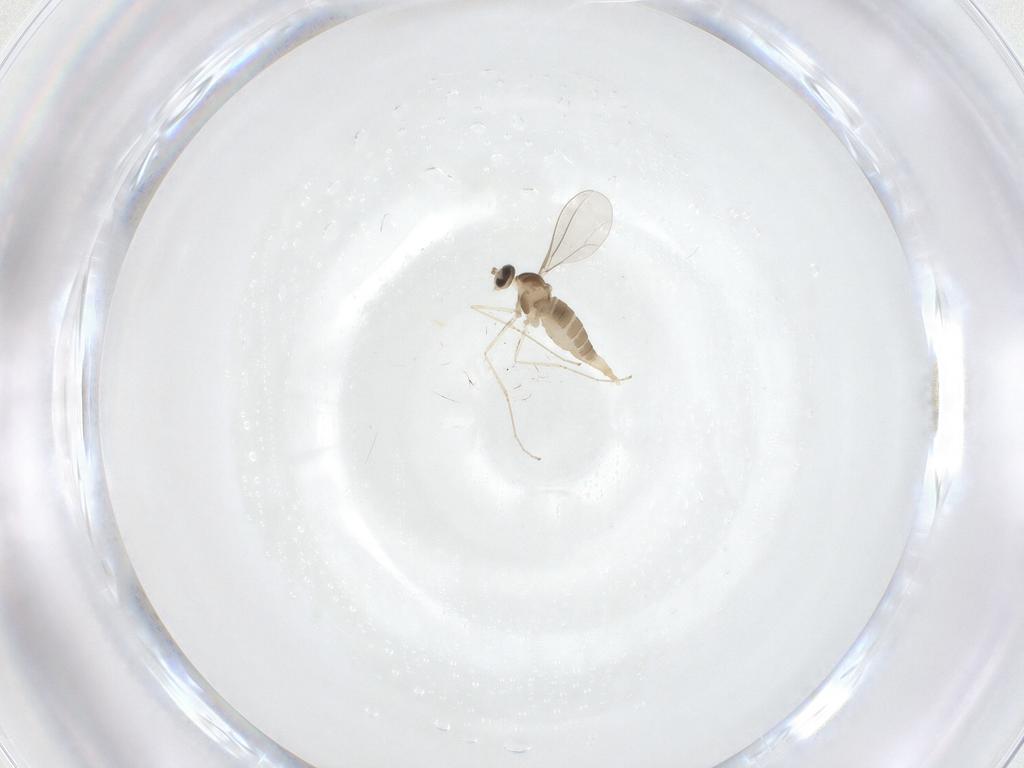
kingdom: Animalia
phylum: Arthropoda
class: Insecta
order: Diptera
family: Cecidomyiidae
